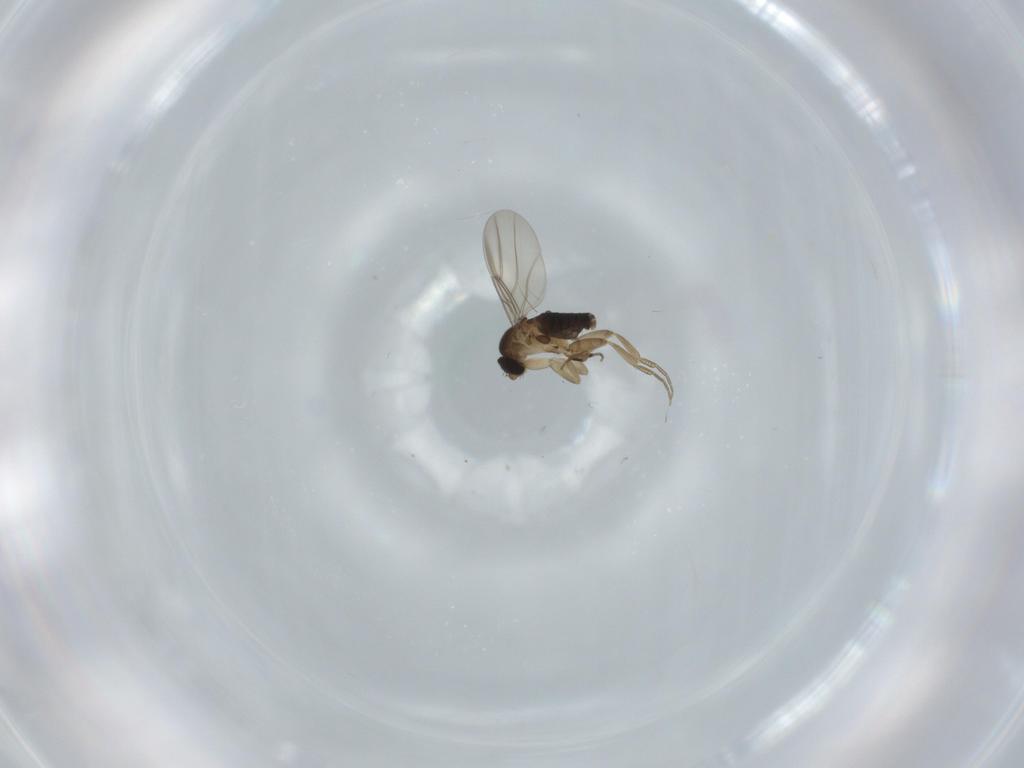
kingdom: Animalia
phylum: Arthropoda
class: Insecta
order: Diptera
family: Phoridae
